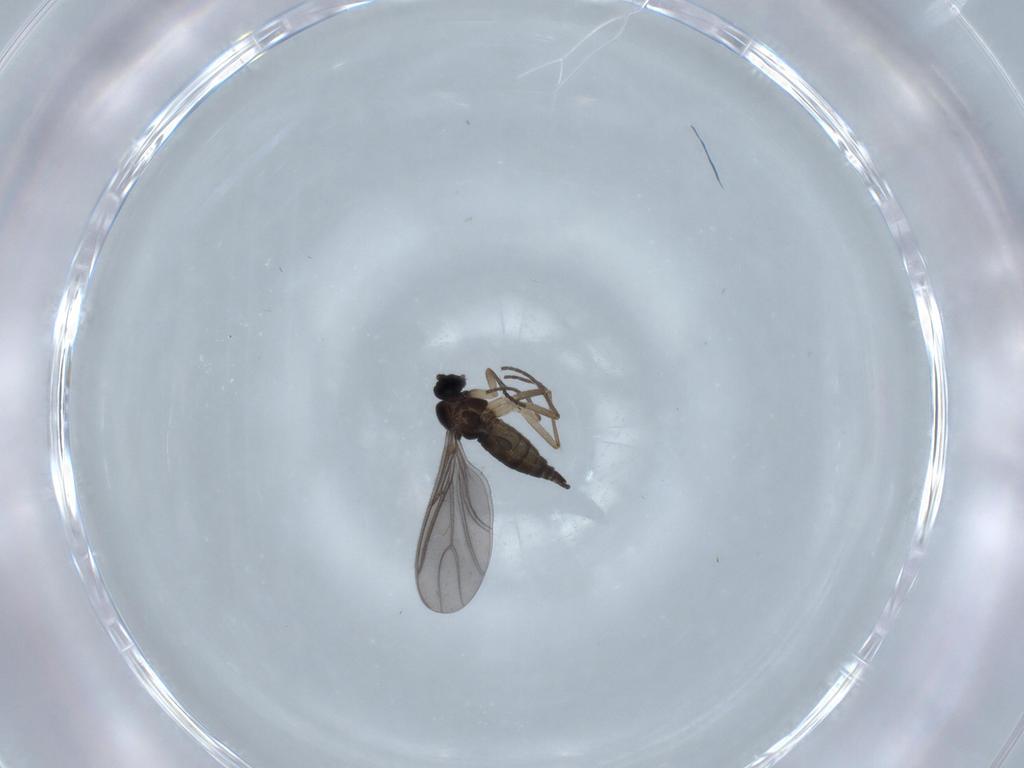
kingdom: Animalia
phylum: Arthropoda
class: Insecta
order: Diptera
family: Sciaridae
